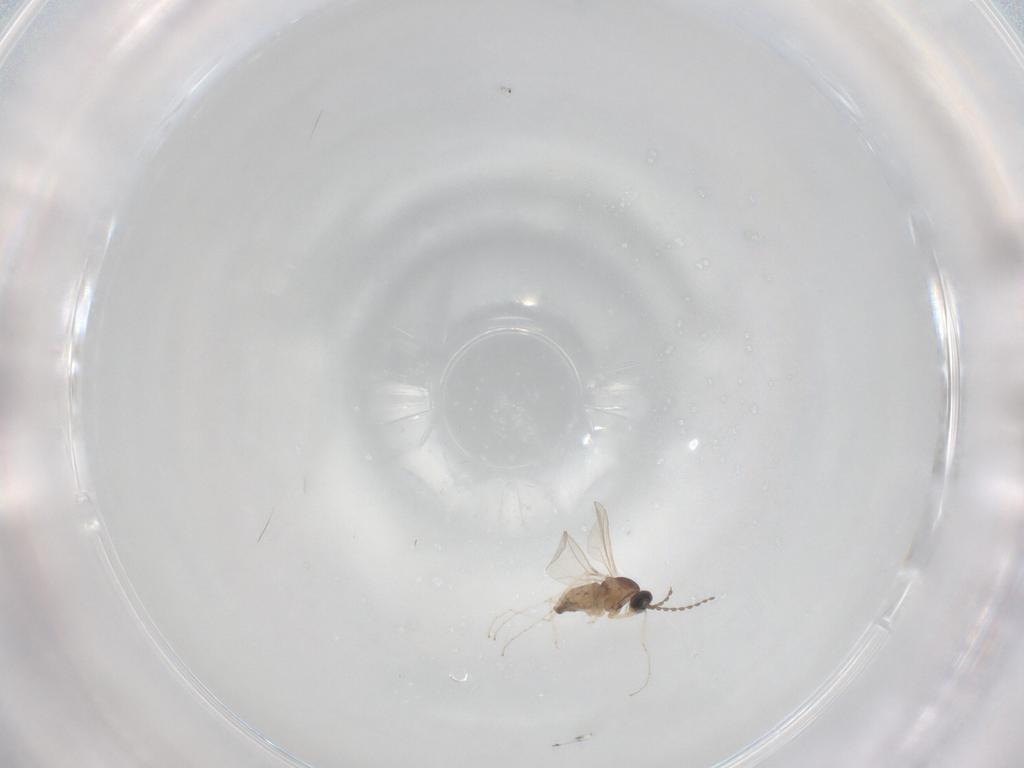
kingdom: Animalia
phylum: Arthropoda
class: Insecta
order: Diptera
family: Cecidomyiidae
